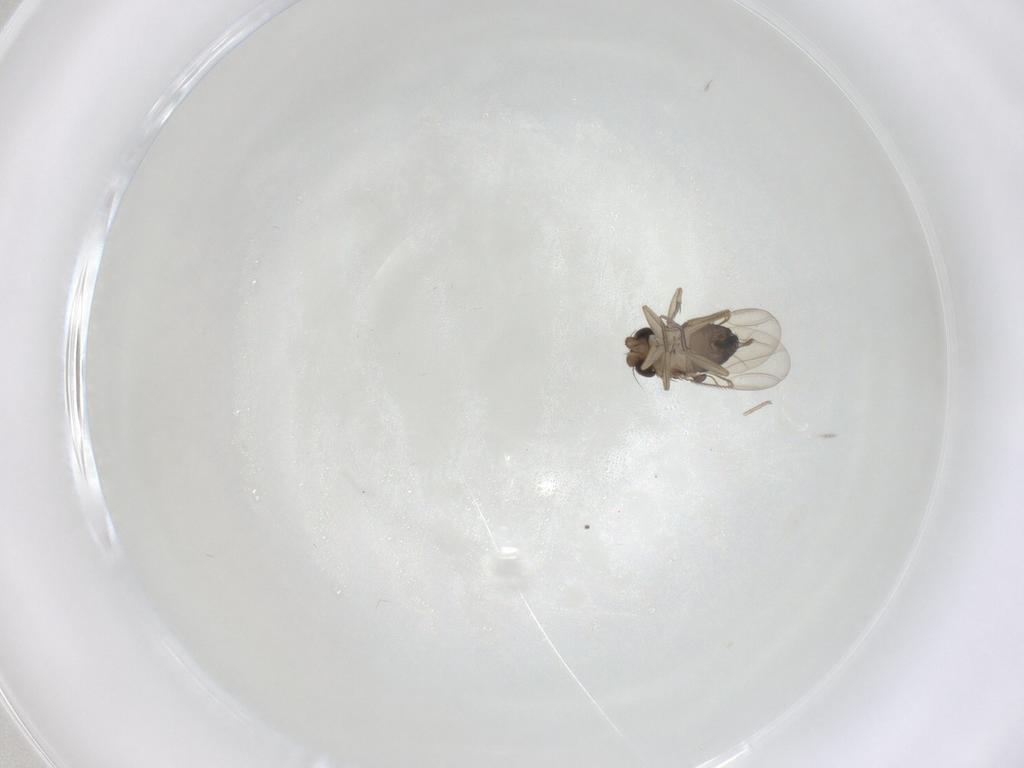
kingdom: Animalia
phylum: Arthropoda
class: Insecta
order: Diptera
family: Phoridae
